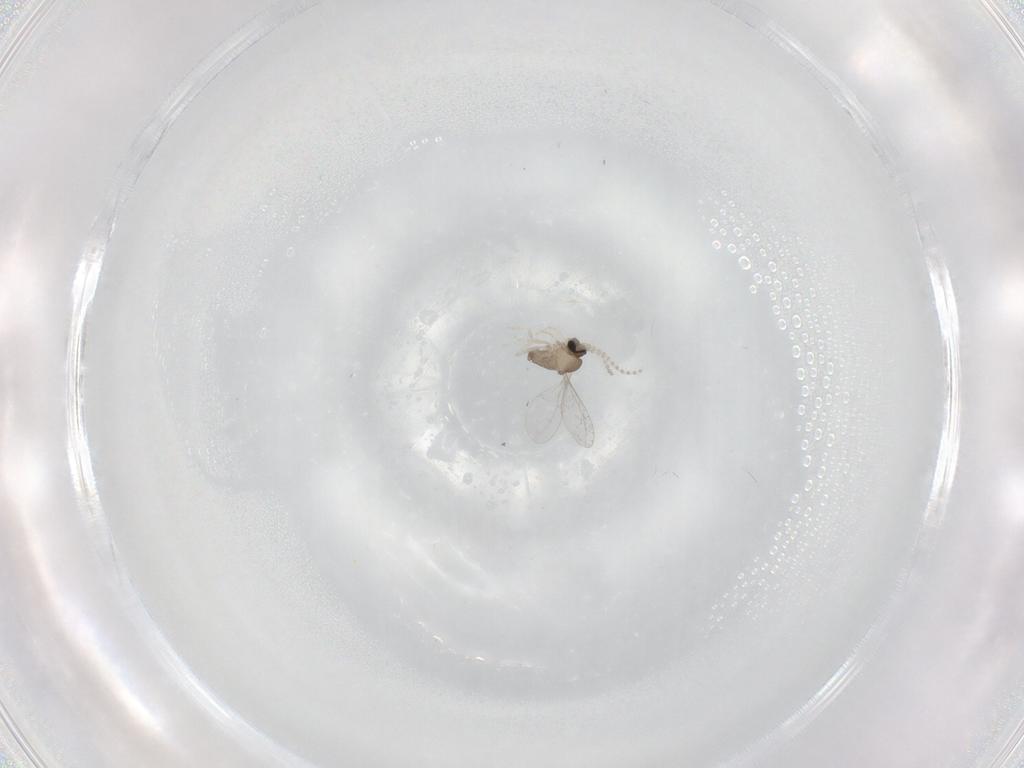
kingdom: Animalia
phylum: Arthropoda
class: Insecta
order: Diptera
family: Cecidomyiidae
